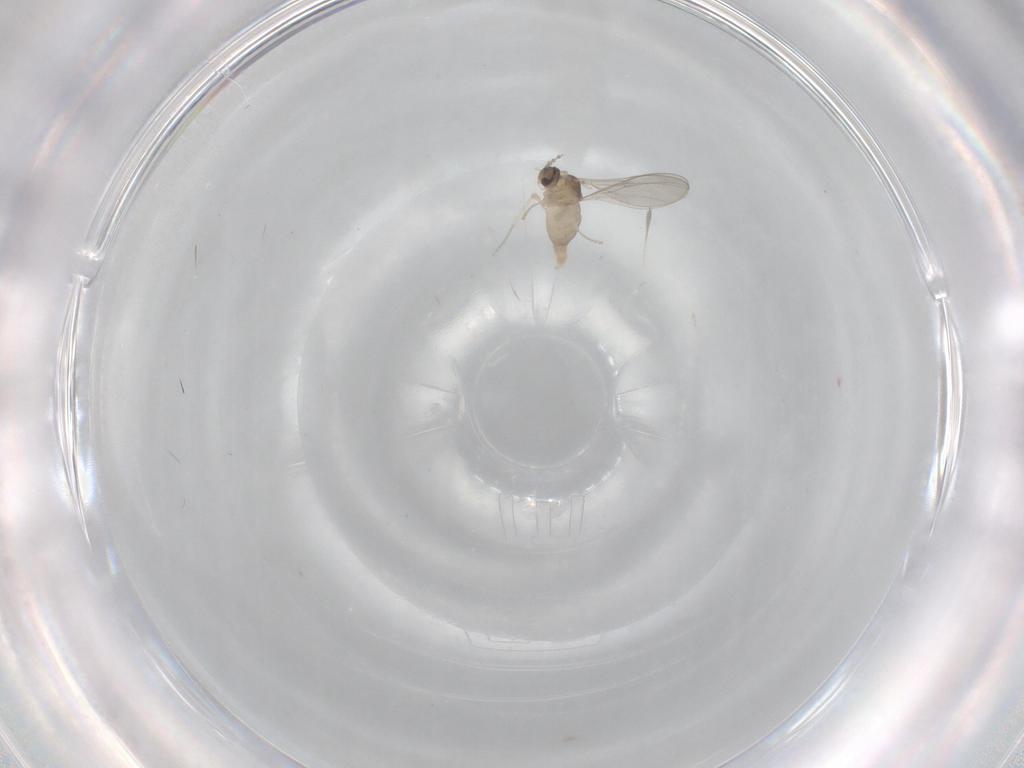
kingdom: Animalia
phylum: Arthropoda
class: Insecta
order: Diptera
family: Cecidomyiidae
